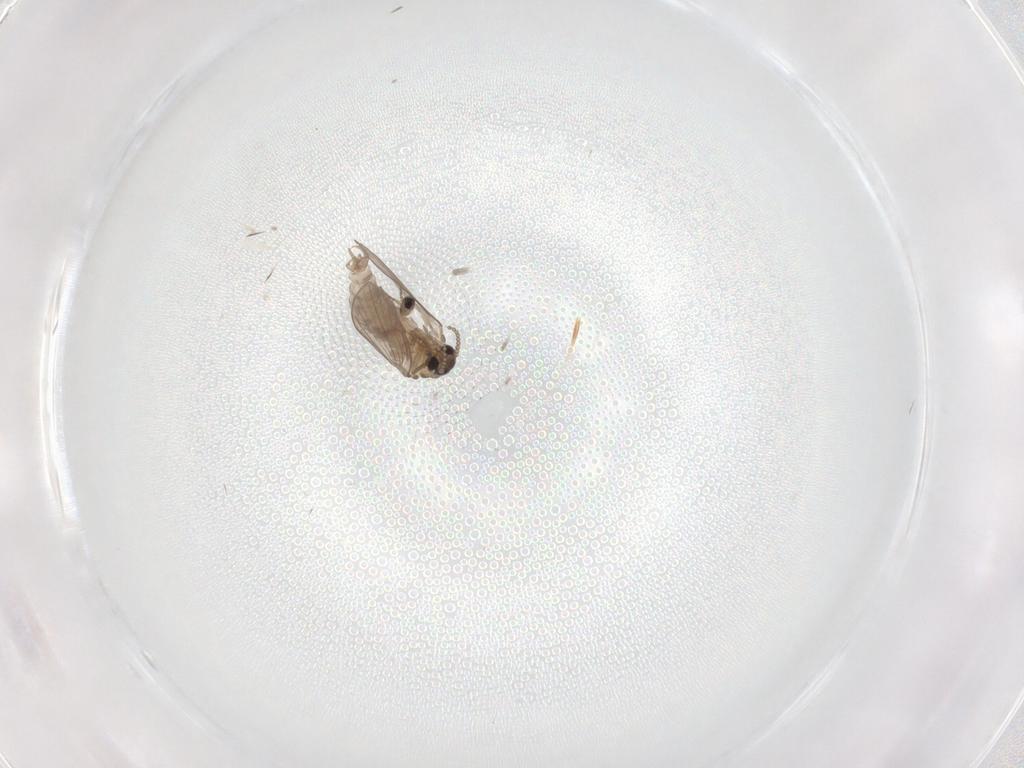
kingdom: Animalia
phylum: Arthropoda
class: Insecta
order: Diptera
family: Cecidomyiidae
